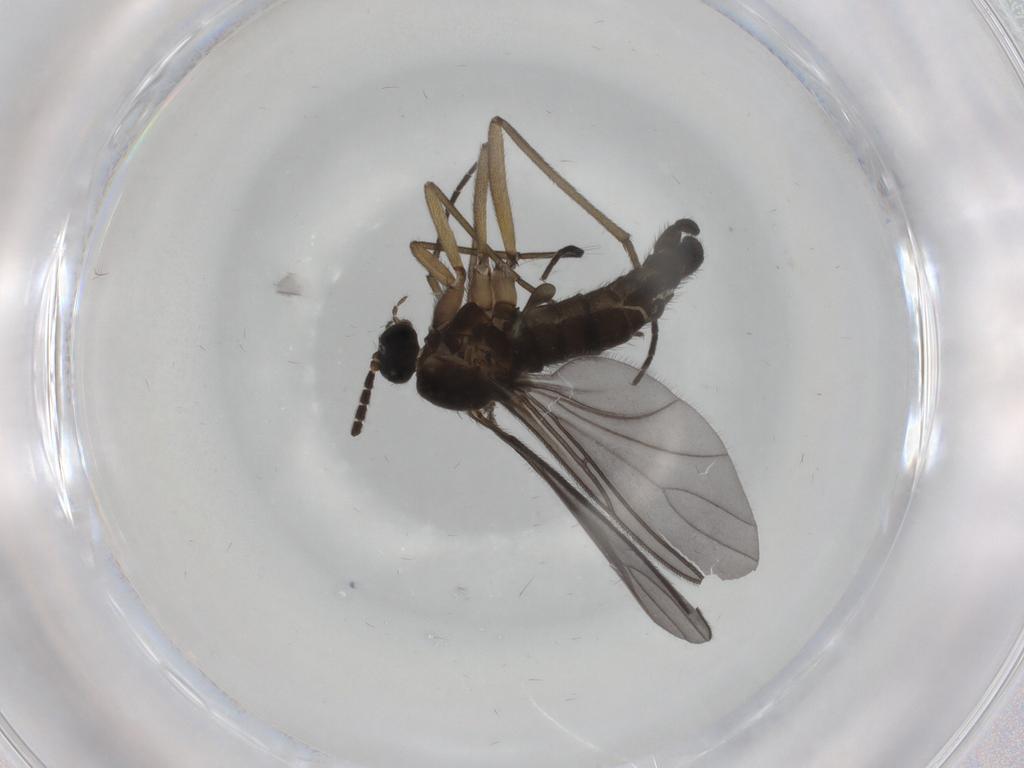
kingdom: Animalia
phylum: Arthropoda
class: Insecta
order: Diptera
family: Sciaridae
